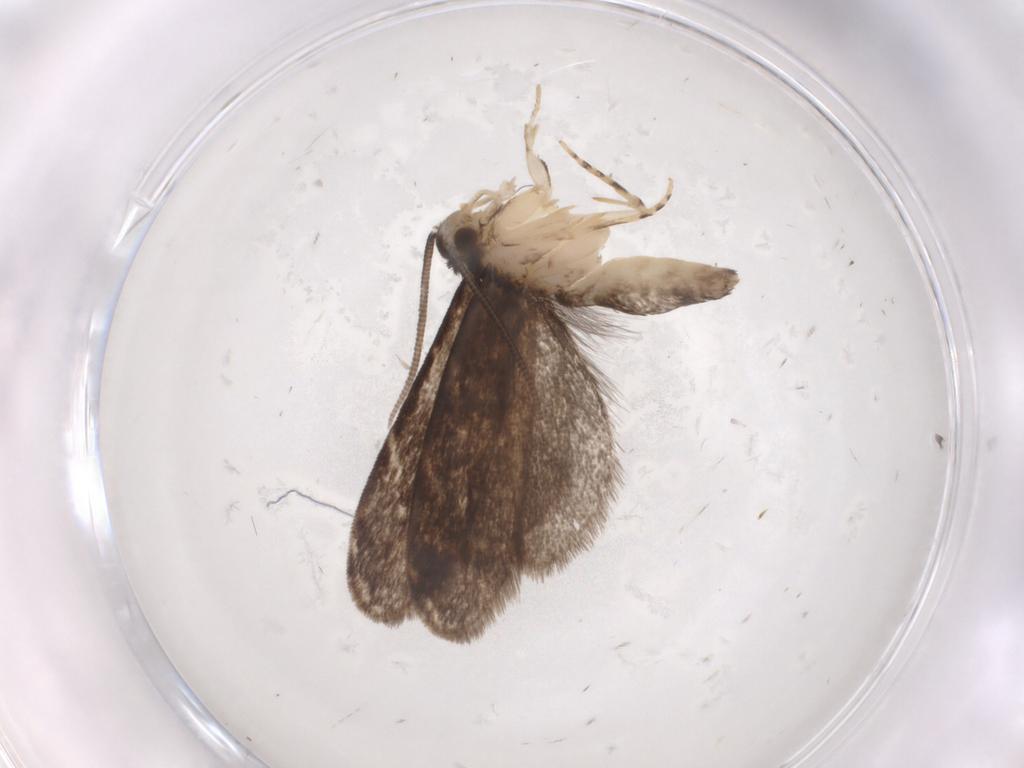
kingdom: Animalia
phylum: Arthropoda
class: Insecta
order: Lepidoptera
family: Dryadaulidae
